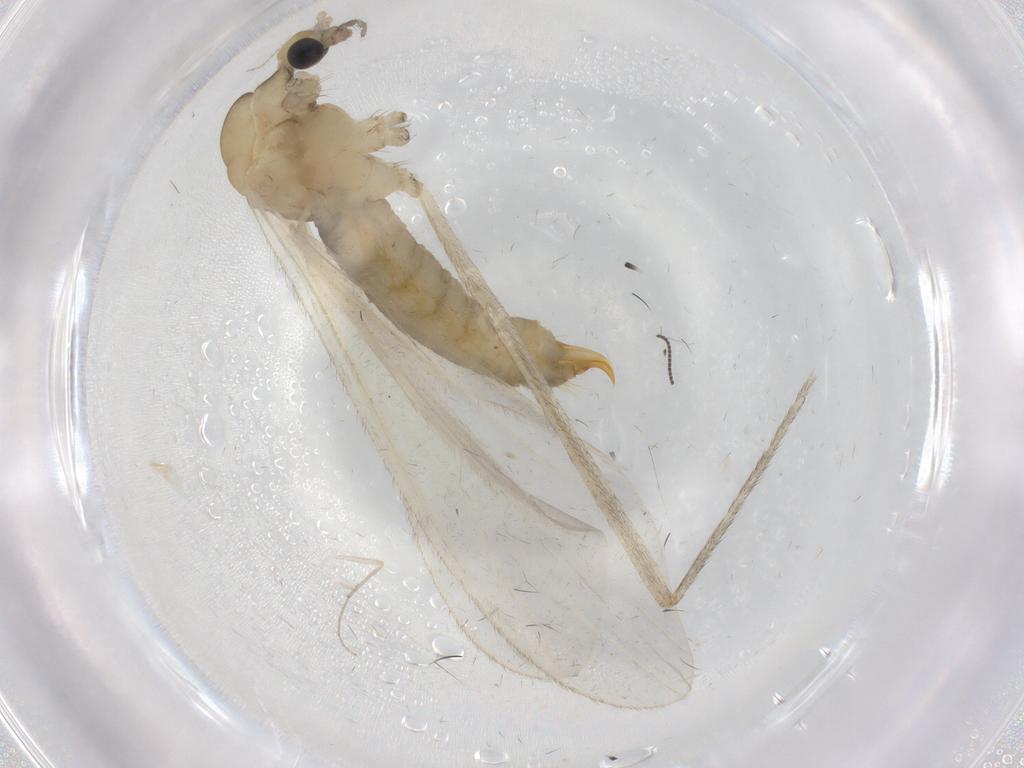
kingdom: Animalia
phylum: Arthropoda
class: Insecta
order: Diptera
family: Limoniidae
